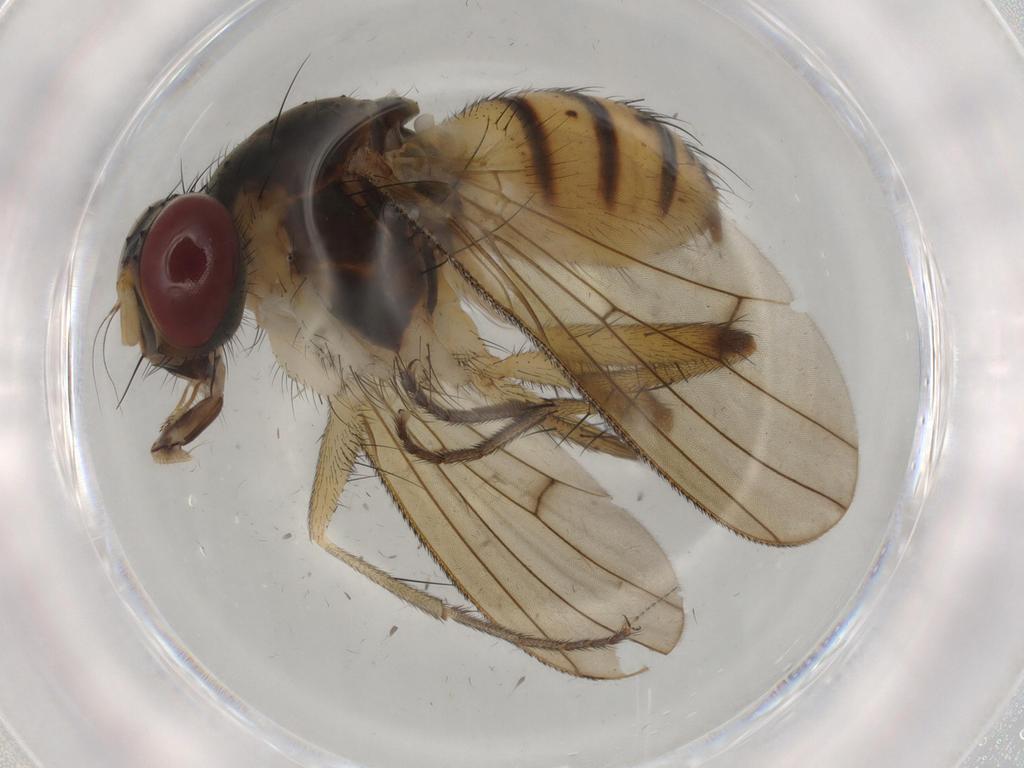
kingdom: Animalia
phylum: Arthropoda
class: Insecta
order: Diptera
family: Muscidae
